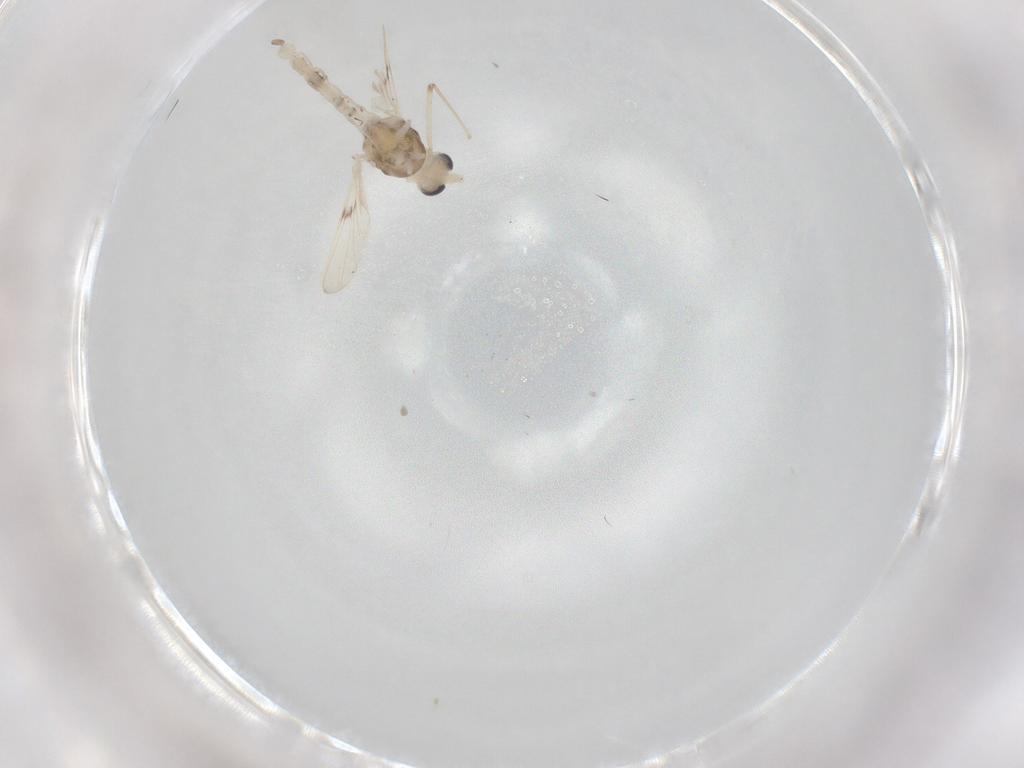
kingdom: Animalia
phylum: Arthropoda
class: Insecta
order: Diptera
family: Chironomidae
